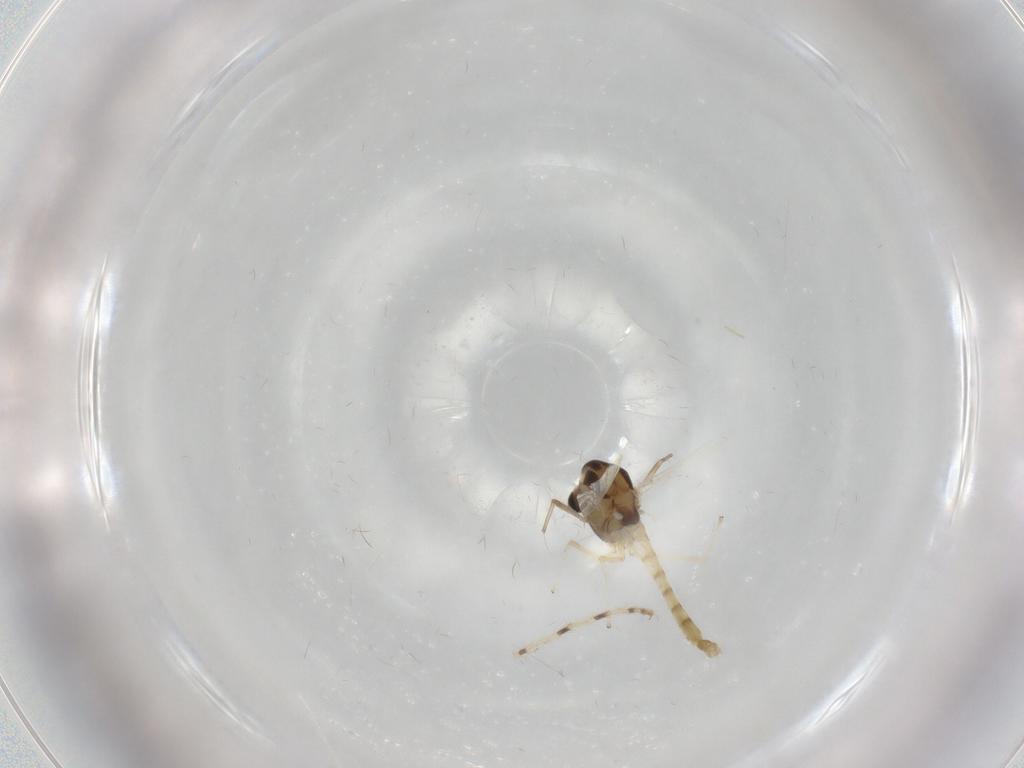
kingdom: Animalia
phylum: Arthropoda
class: Insecta
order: Diptera
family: Chironomidae
